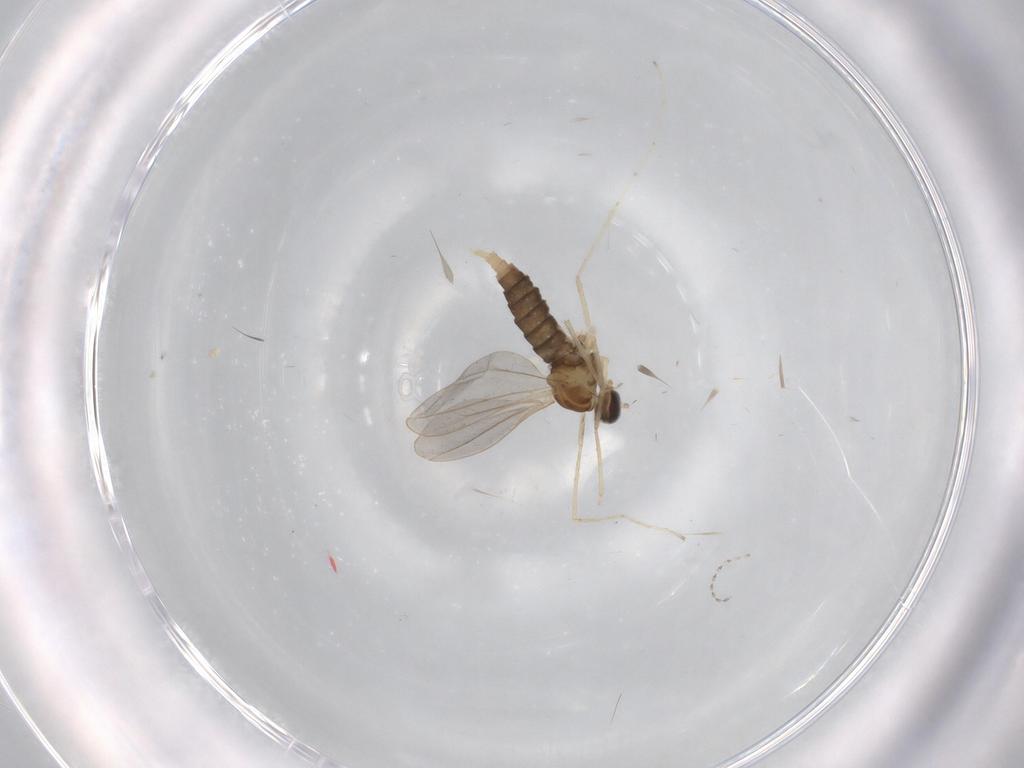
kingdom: Animalia
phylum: Arthropoda
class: Insecta
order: Diptera
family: Cecidomyiidae
